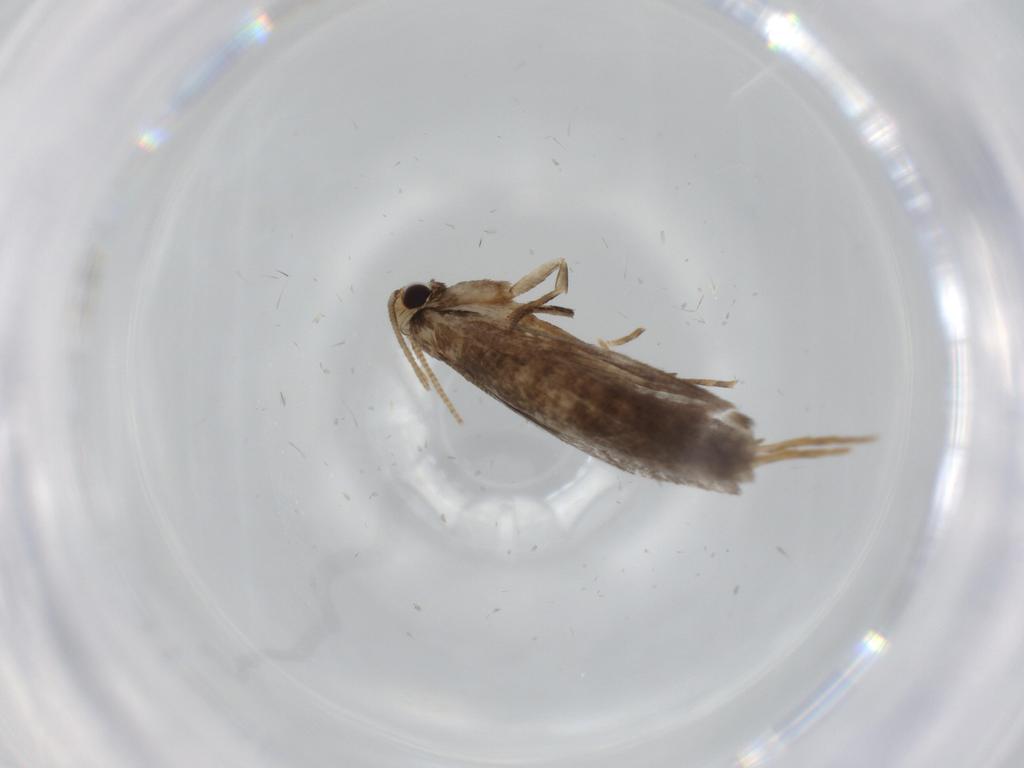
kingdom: Animalia
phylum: Arthropoda
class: Insecta
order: Lepidoptera
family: Tineidae
